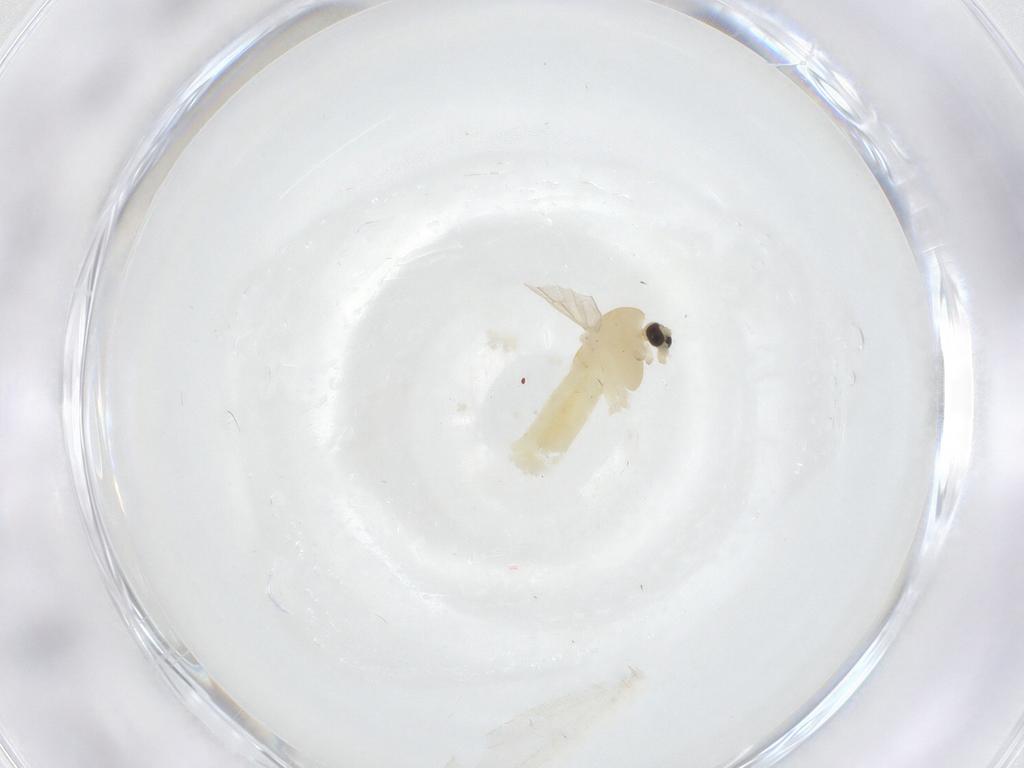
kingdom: Animalia
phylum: Arthropoda
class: Insecta
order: Diptera
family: Chironomidae
